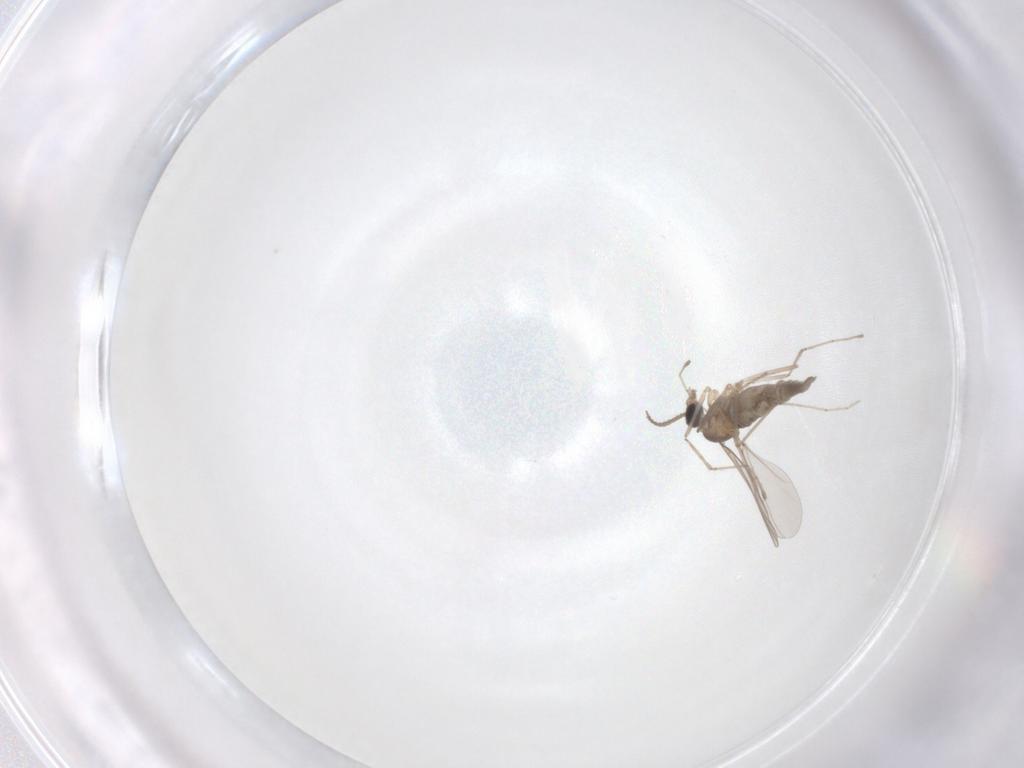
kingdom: Animalia
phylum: Arthropoda
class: Insecta
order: Diptera
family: Cecidomyiidae
